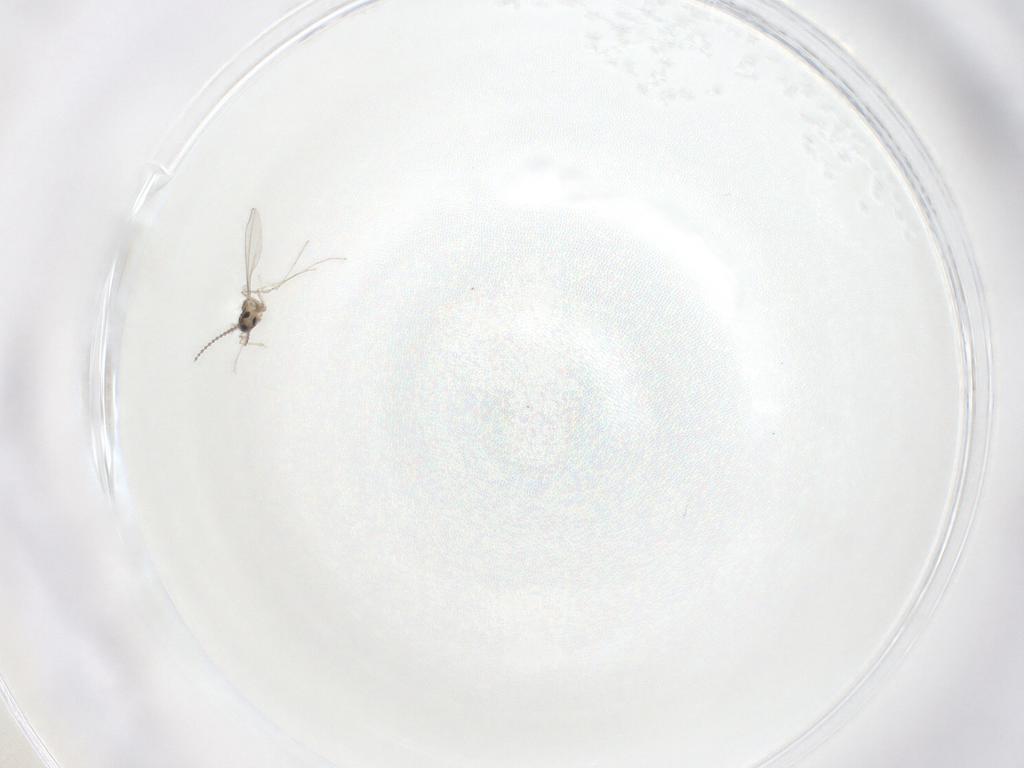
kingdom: Animalia
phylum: Arthropoda
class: Insecta
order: Diptera
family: Cecidomyiidae
